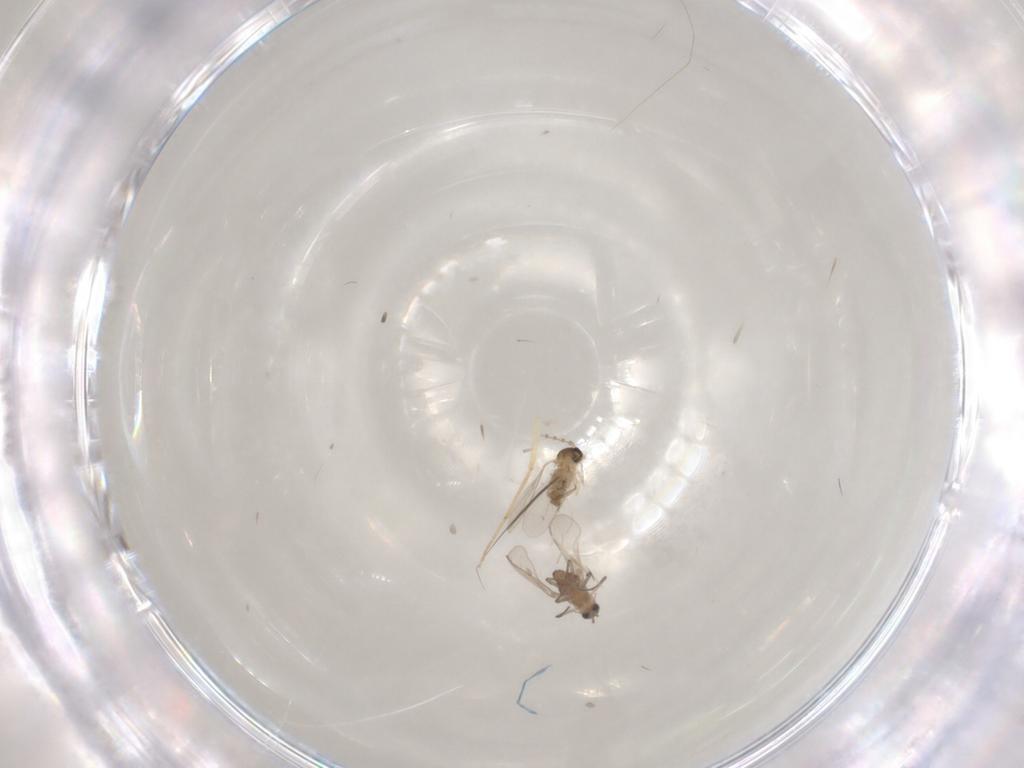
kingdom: Animalia
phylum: Arthropoda
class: Insecta
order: Diptera
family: Cecidomyiidae
